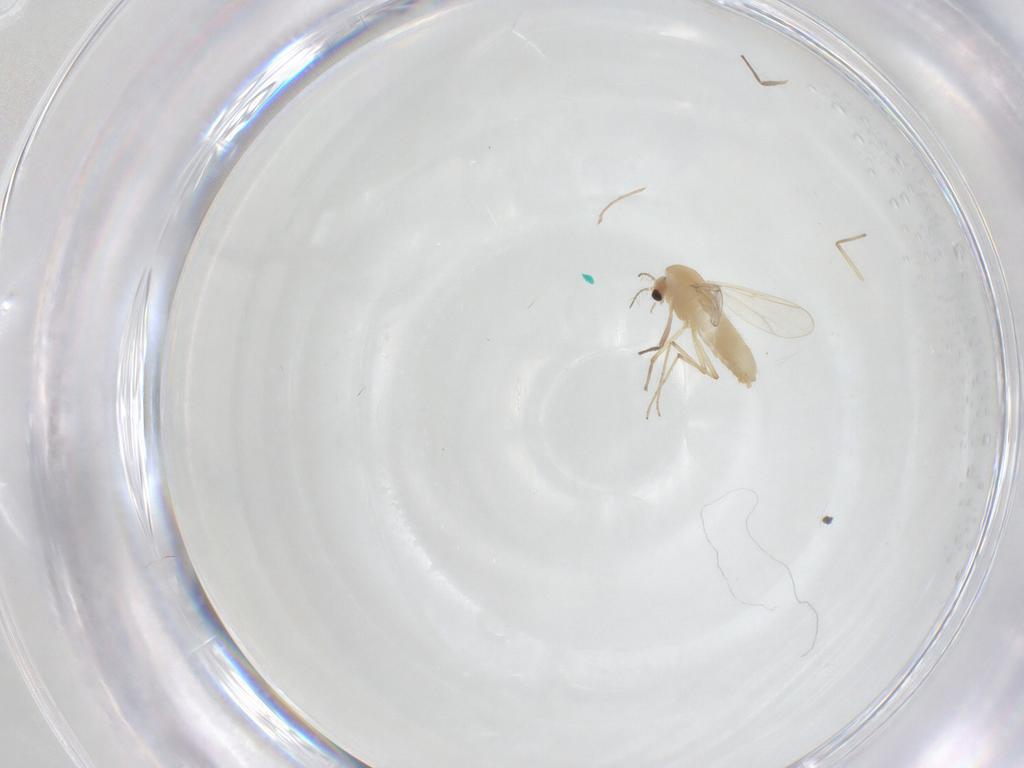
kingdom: Animalia
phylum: Arthropoda
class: Insecta
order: Diptera
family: Chironomidae
